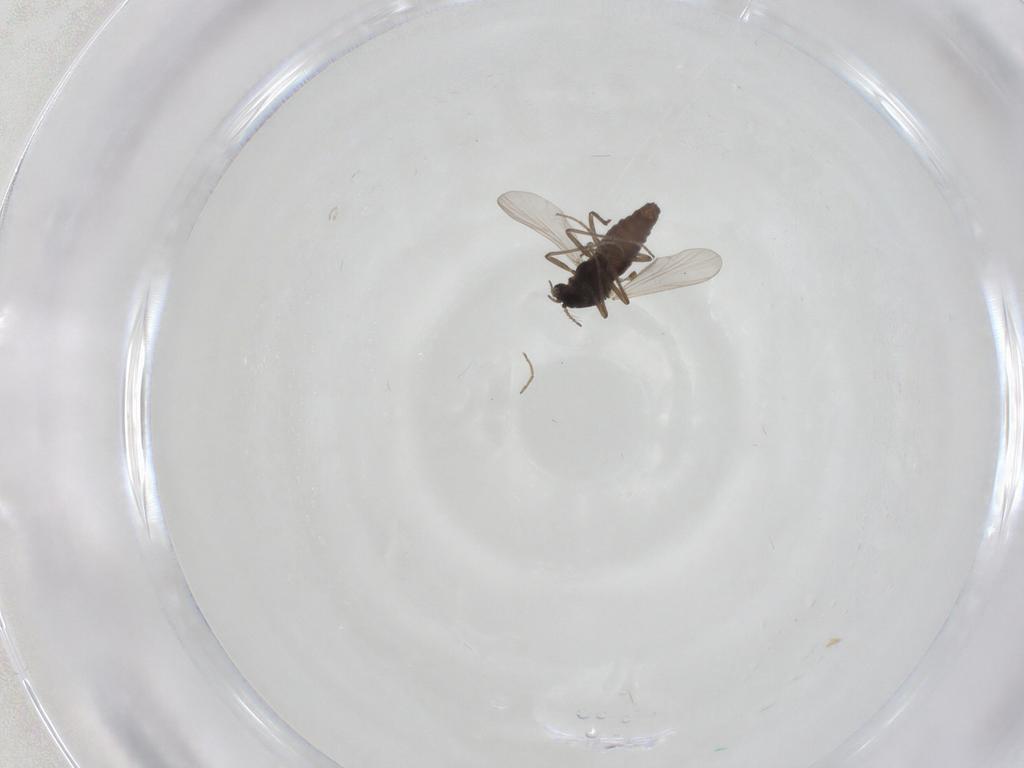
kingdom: Animalia
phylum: Arthropoda
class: Insecta
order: Diptera
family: Chironomidae
